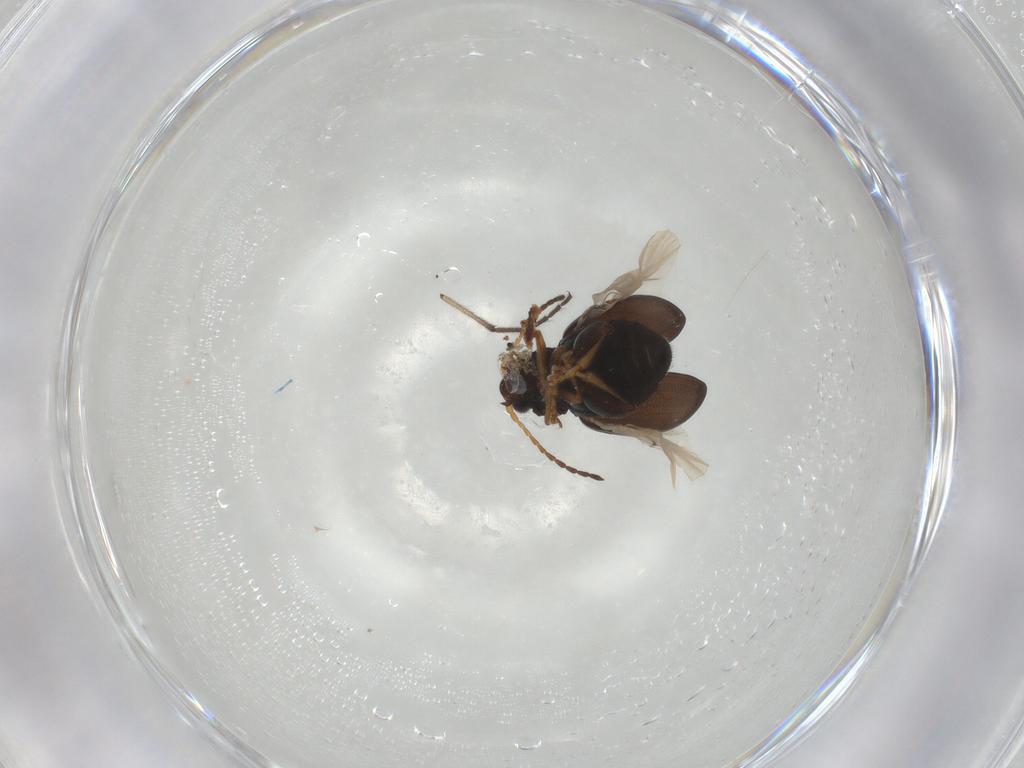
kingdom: Animalia
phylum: Arthropoda
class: Insecta
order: Coleoptera
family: Chrysomelidae
